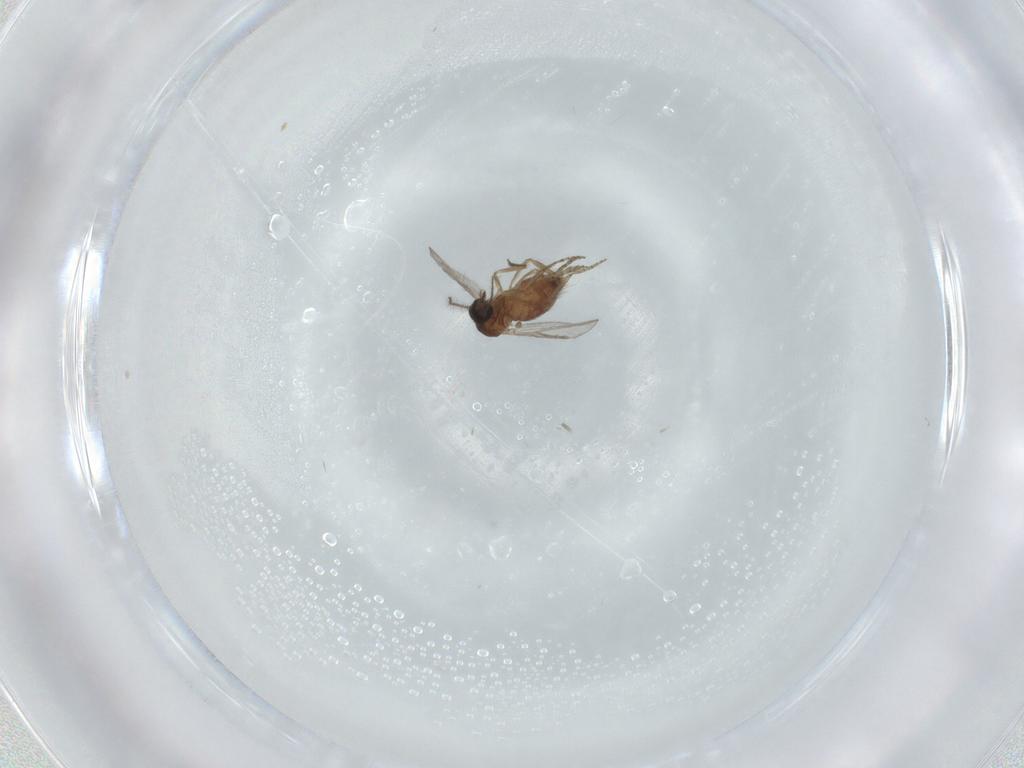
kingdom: Animalia
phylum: Arthropoda
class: Insecta
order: Diptera
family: Ceratopogonidae
